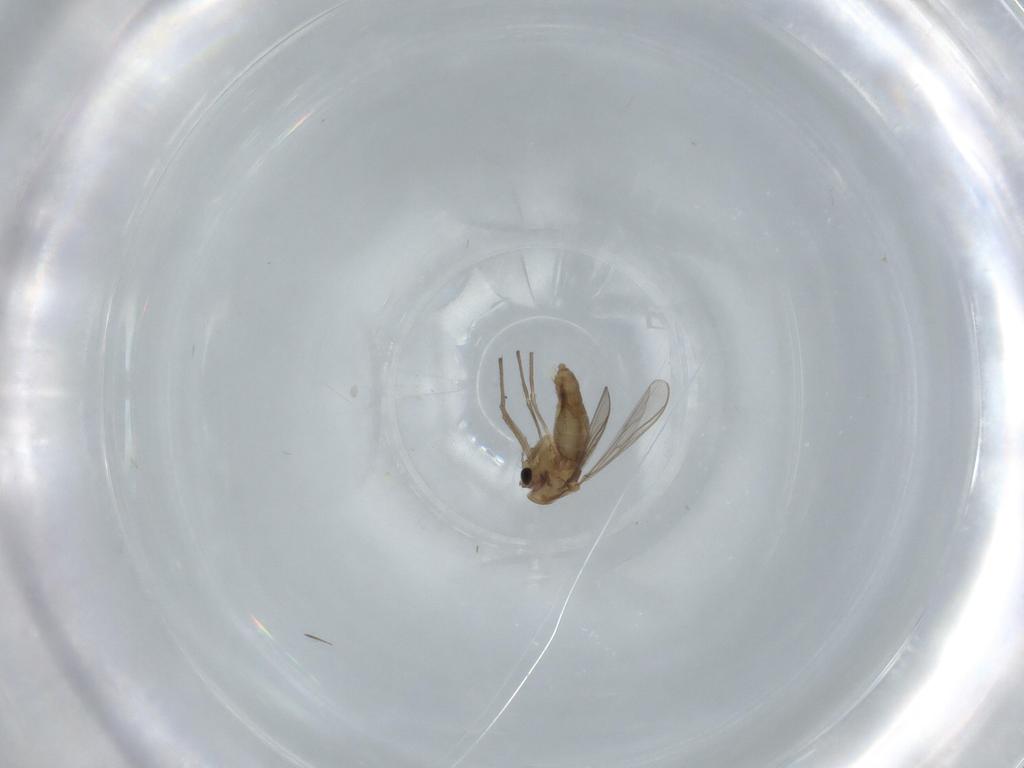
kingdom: Animalia
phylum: Arthropoda
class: Insecta
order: Diptera
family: Chironomidae
